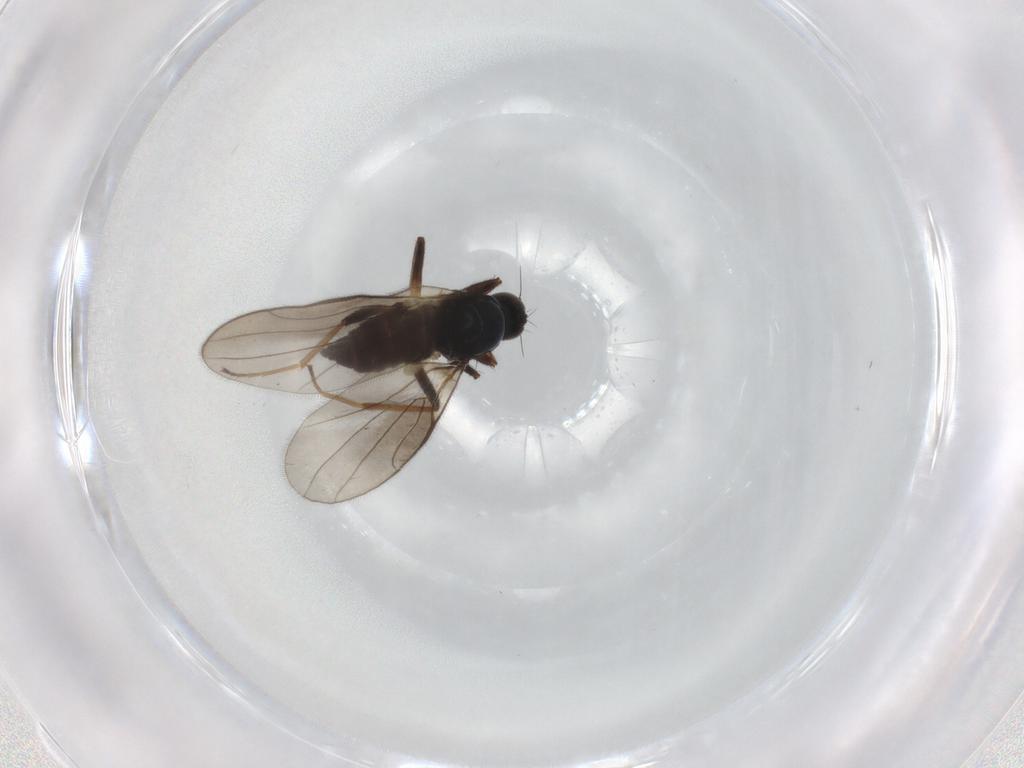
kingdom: Animalia
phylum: Arthropoda
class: Insecta
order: Diptera
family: Hybotidae
